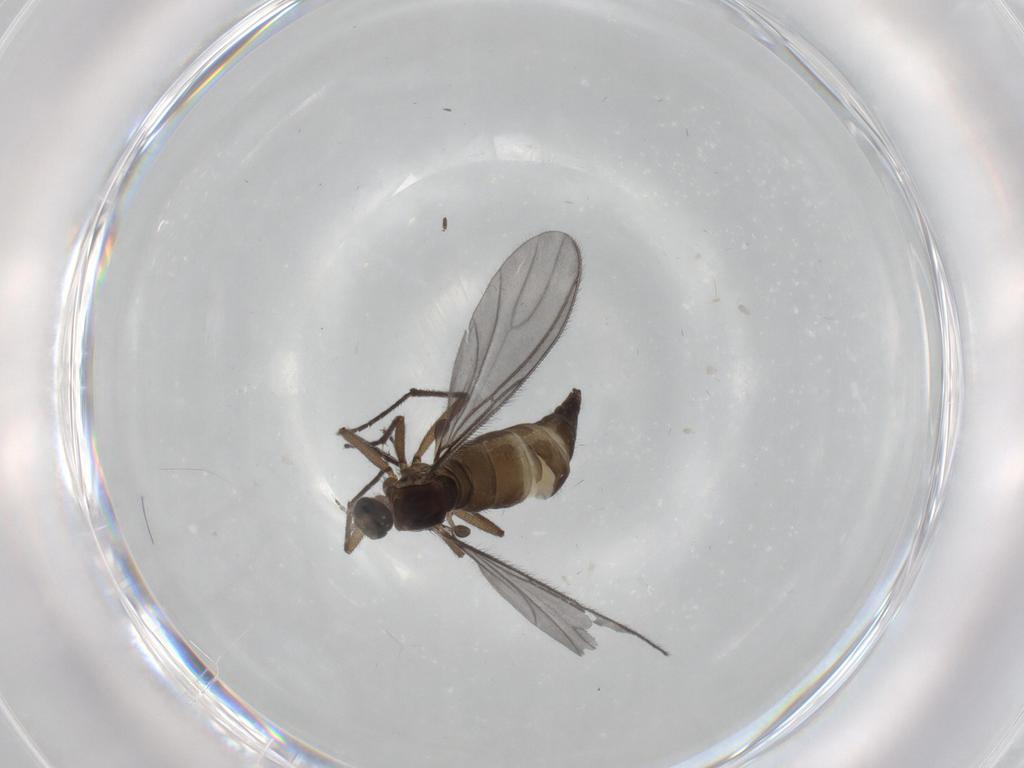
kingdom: Animalia
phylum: Arthropoda
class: Insecta
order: Diptera
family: Sciaridae
